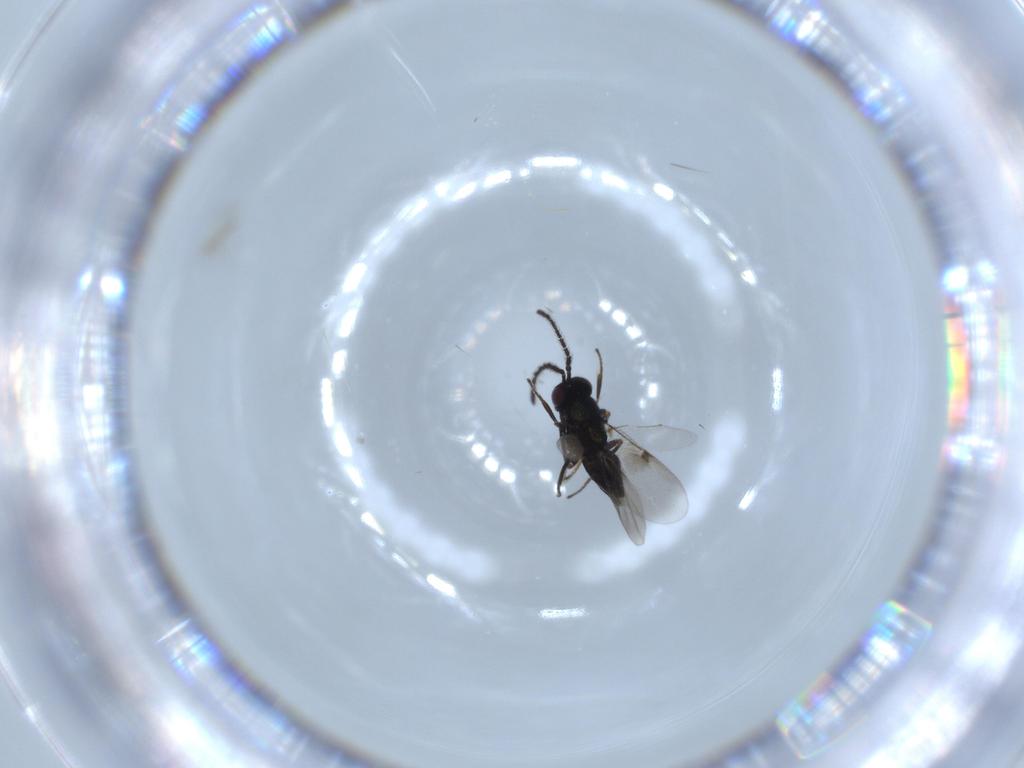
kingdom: Animalia
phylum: Arthropoda
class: Insecta
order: Hymenoptera
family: Encyrtidae
